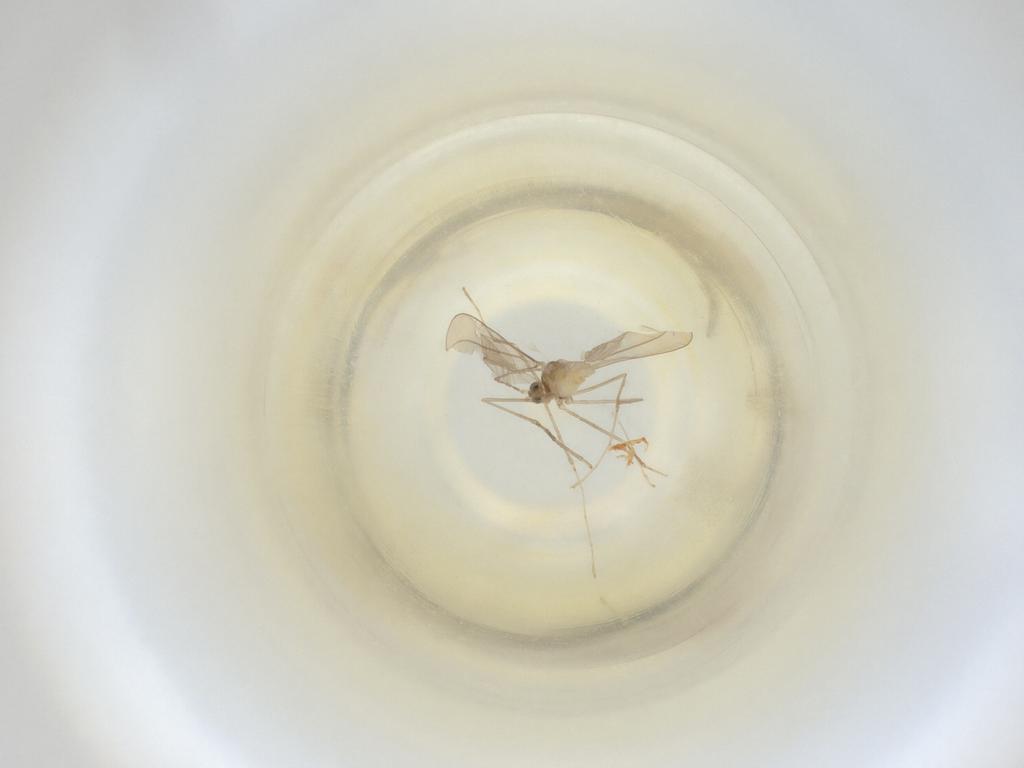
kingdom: Animalia
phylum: Arthropoda
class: Insecta
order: Diptera
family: Cecidomyiidae
